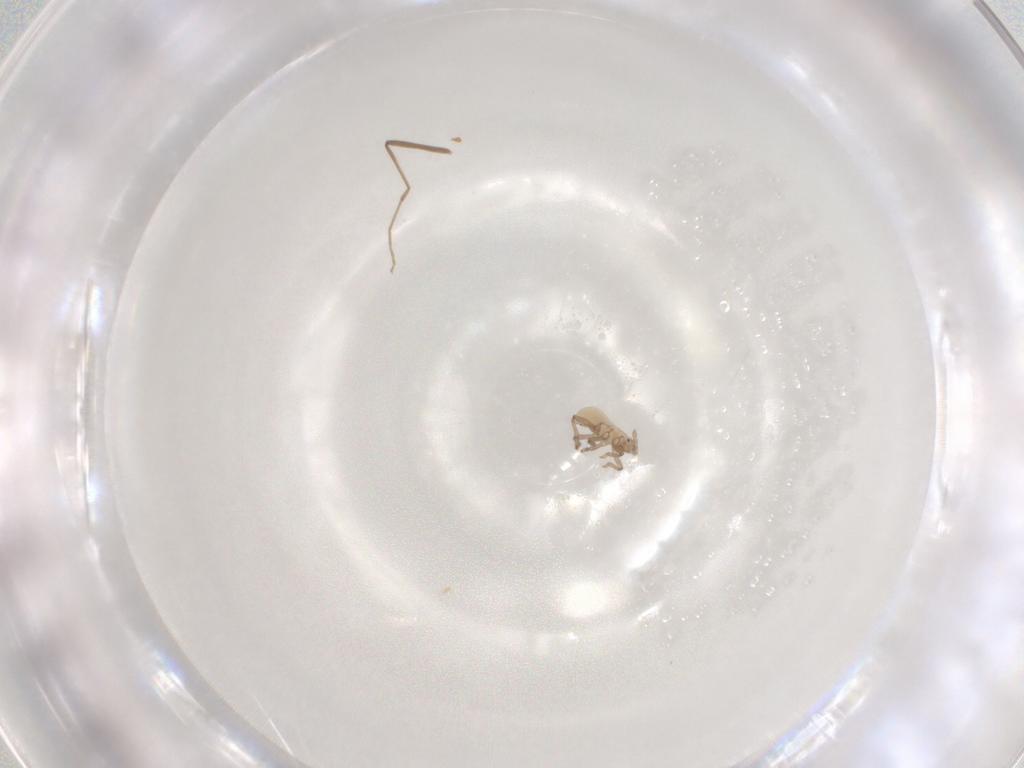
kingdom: Animalia
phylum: Arthropoda
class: Insecta
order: Hemiptera
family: Aphididae
